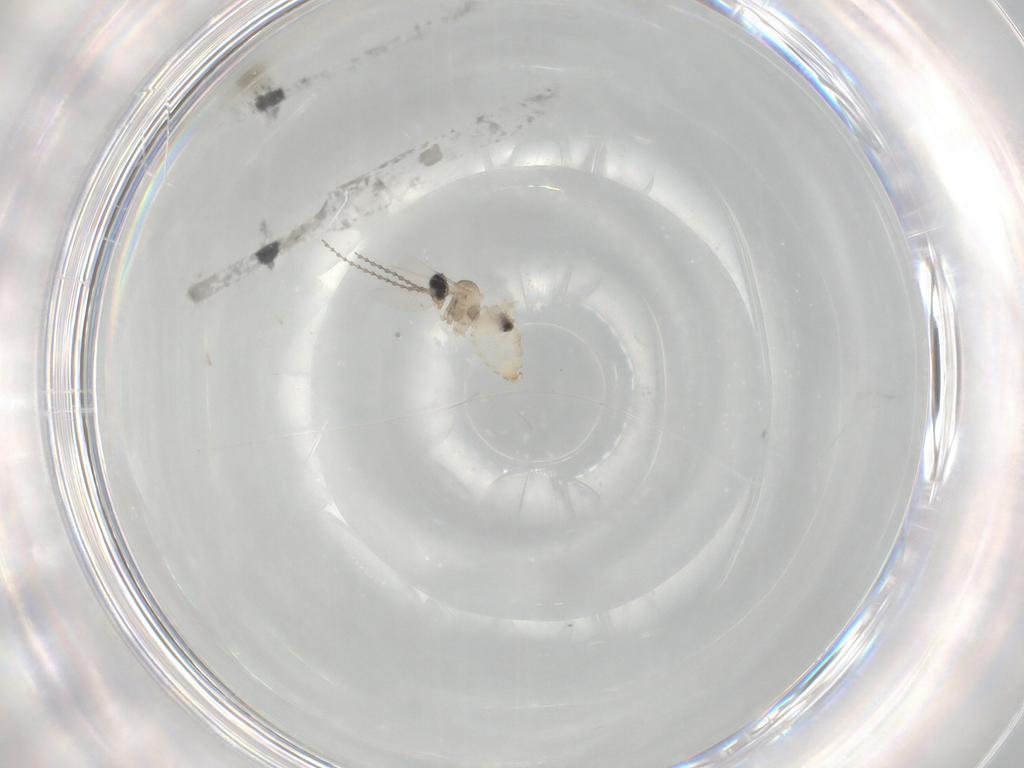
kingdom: Animalia
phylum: Arthropoda
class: Insecta
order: Diptera
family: Cecidomyiidae
